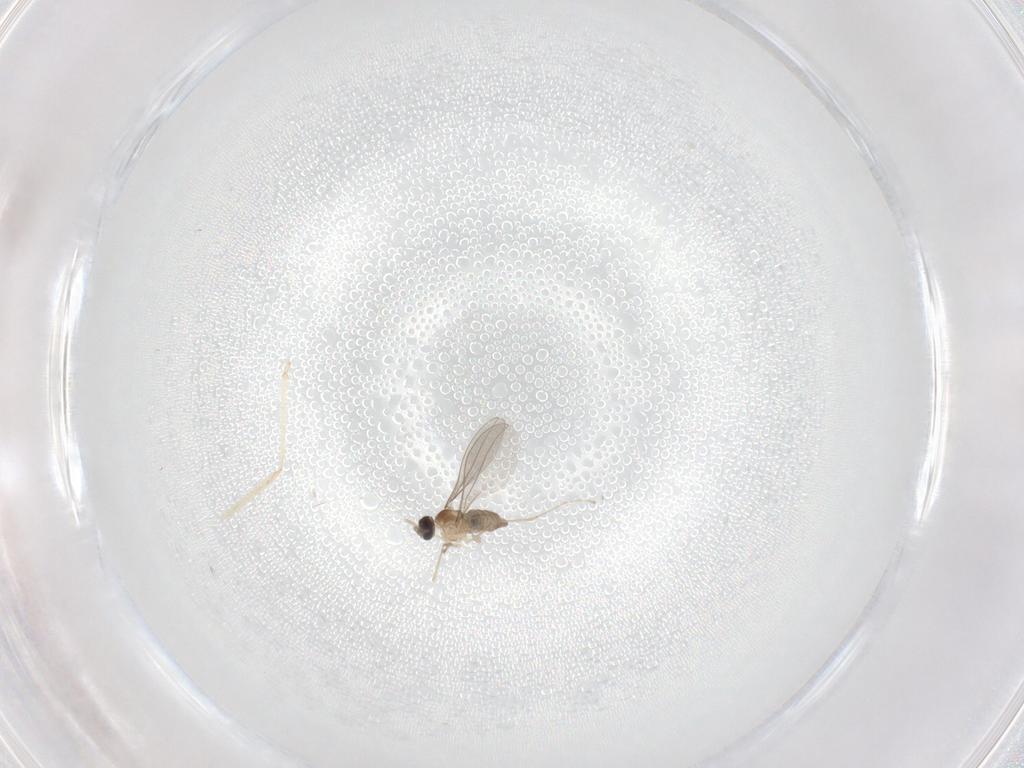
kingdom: Animalia
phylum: Arthropoda
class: Insecta
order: Diptera
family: Cecidomyiidae
